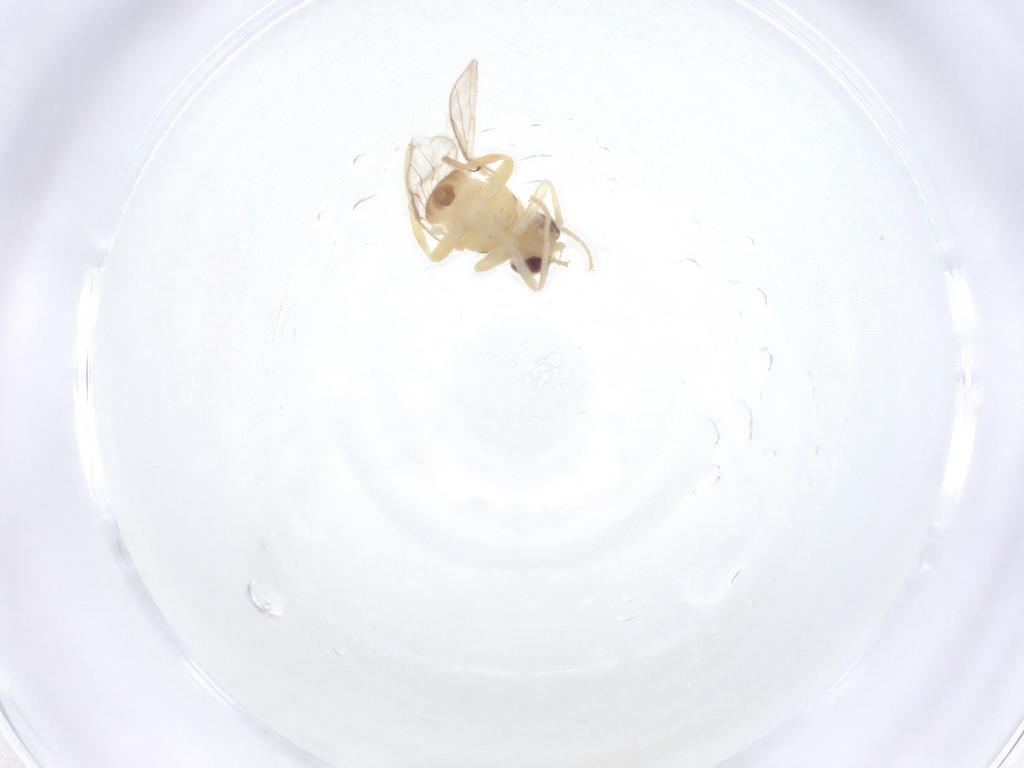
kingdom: Animalia
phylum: Arthropoda
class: Insecta
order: Diptera
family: Chloropidae
